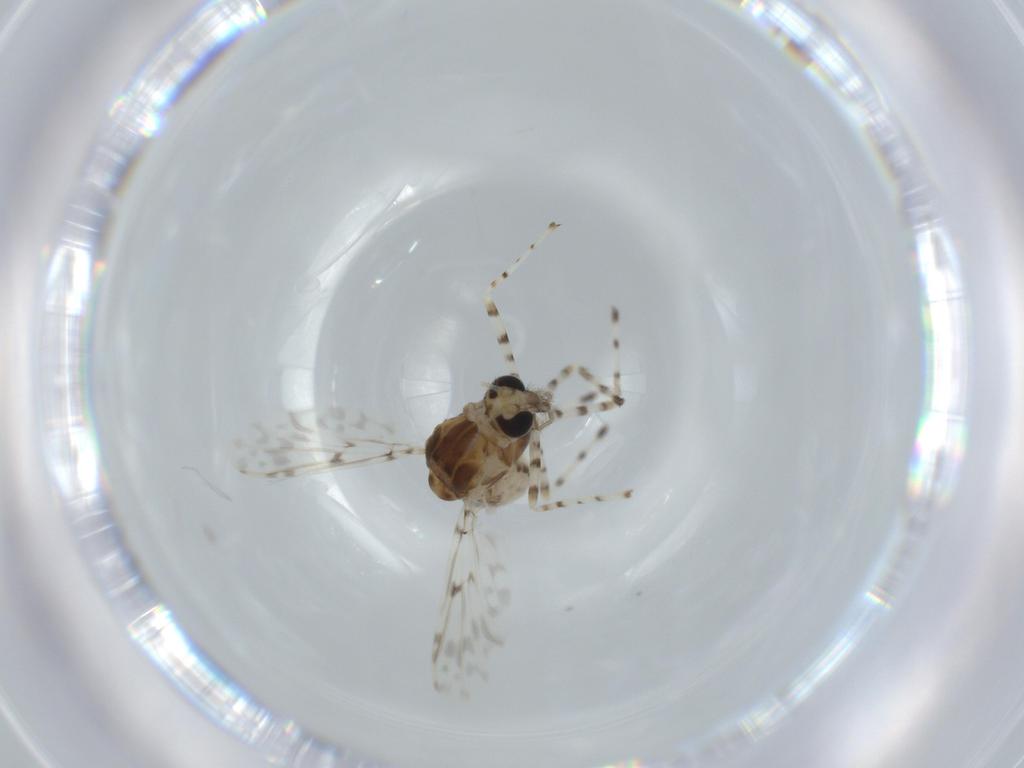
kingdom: Animalia
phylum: Arthropoda
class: Insecta
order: Diptera
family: Chironomidae
